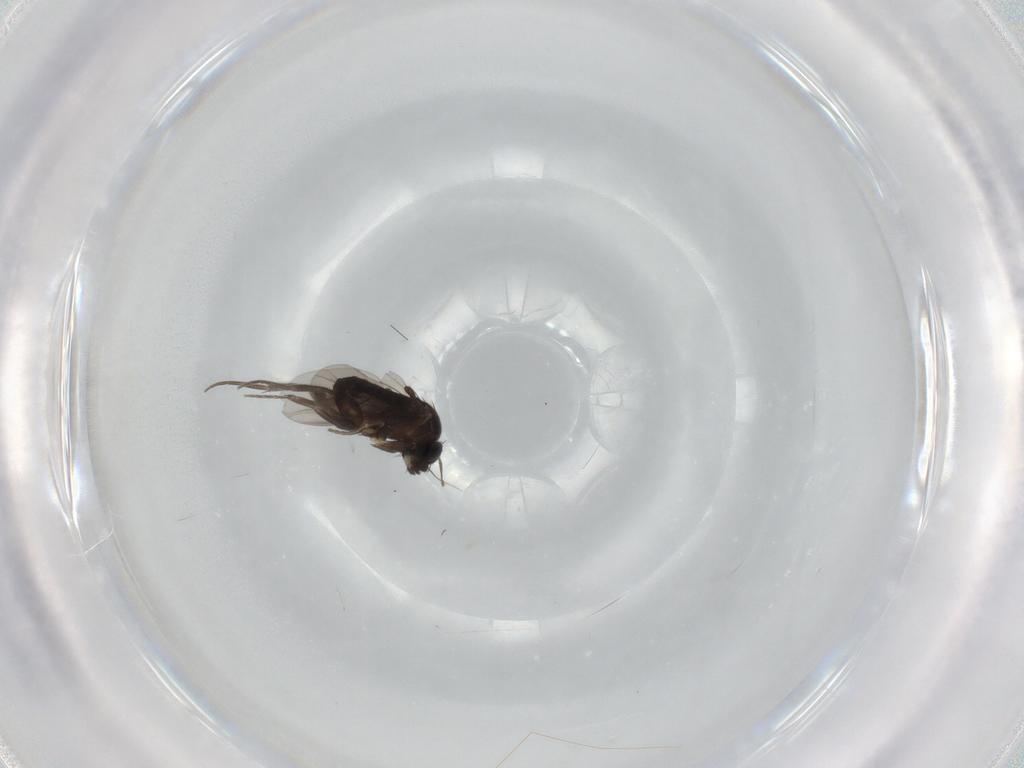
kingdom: Animalia
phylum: Arthropoda
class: Insecta
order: Diptera
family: Phoridae
